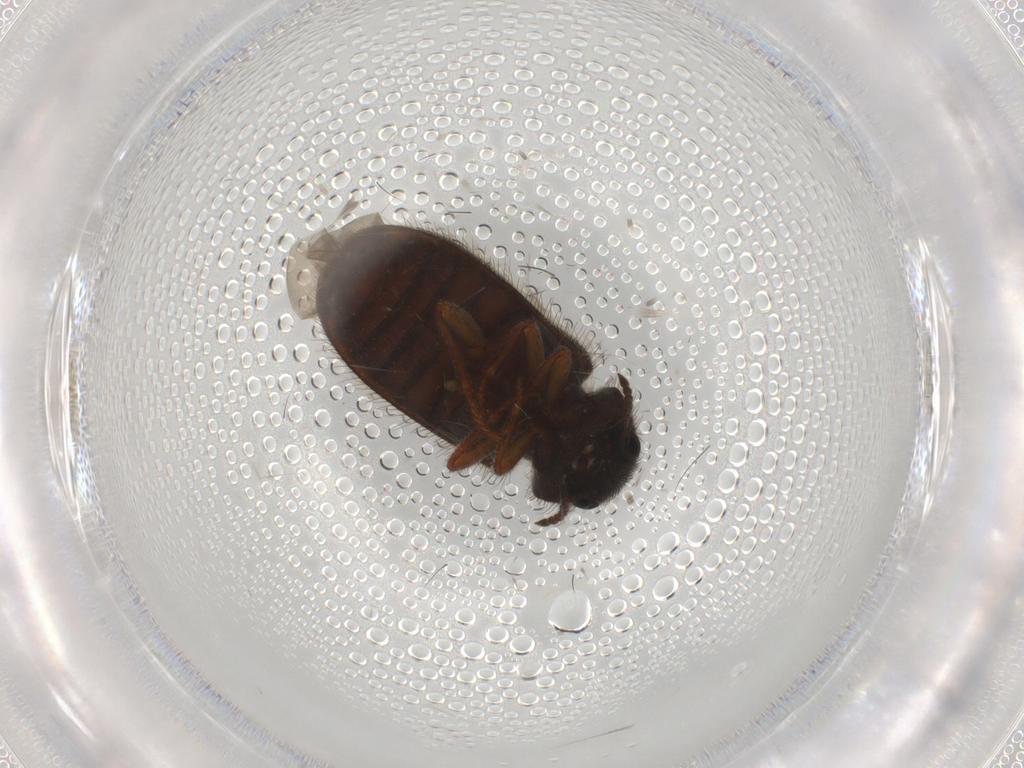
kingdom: Animalia
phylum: Arthropoda
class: Insecta
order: Coleoptera
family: Melyridae
